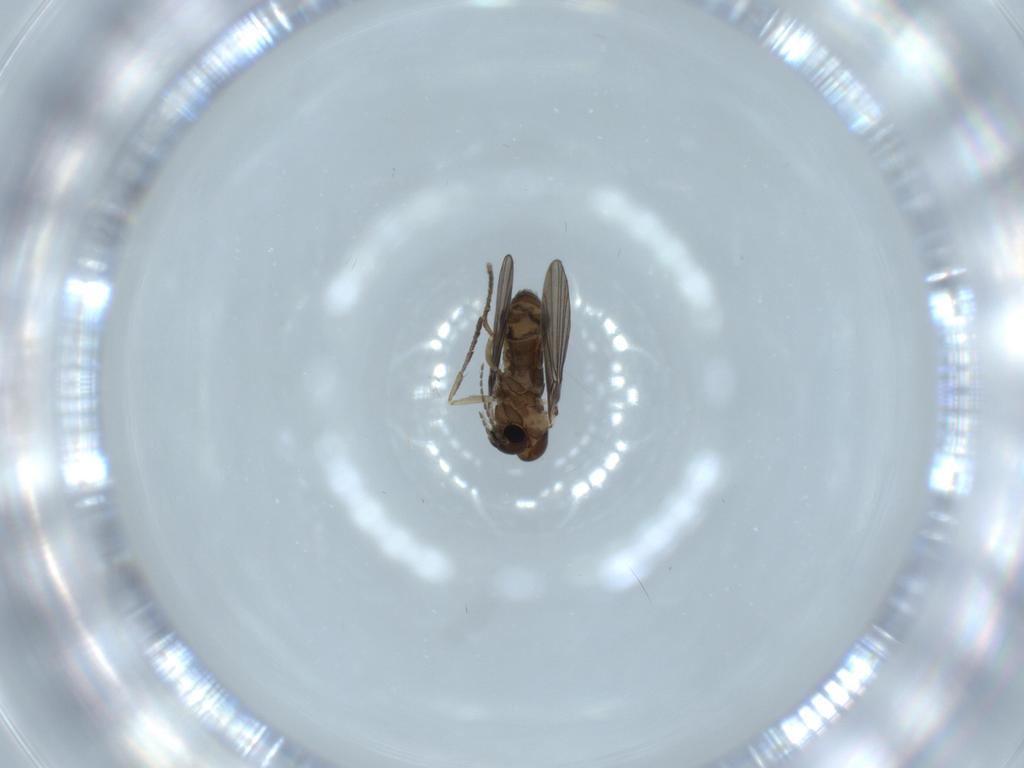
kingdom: Animalia
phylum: Arthropoda
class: Insecta
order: Diptera
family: Psychodidae
